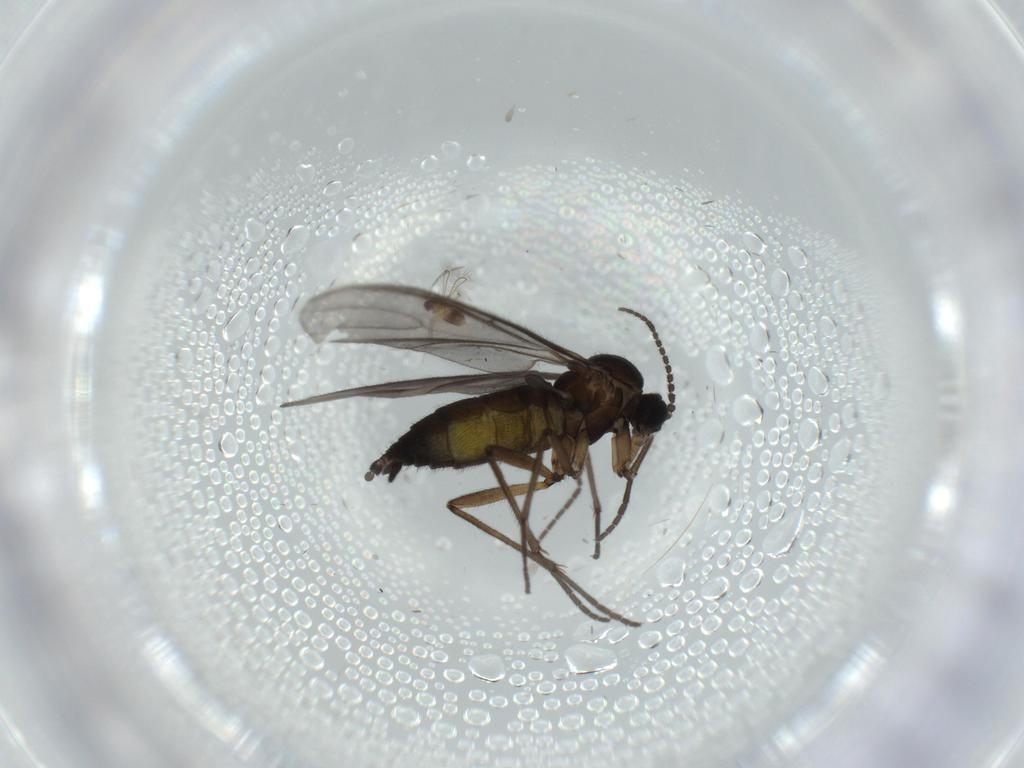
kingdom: Animalia
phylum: Arthropoda
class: Insecta
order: Diptera
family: Sciaridae
